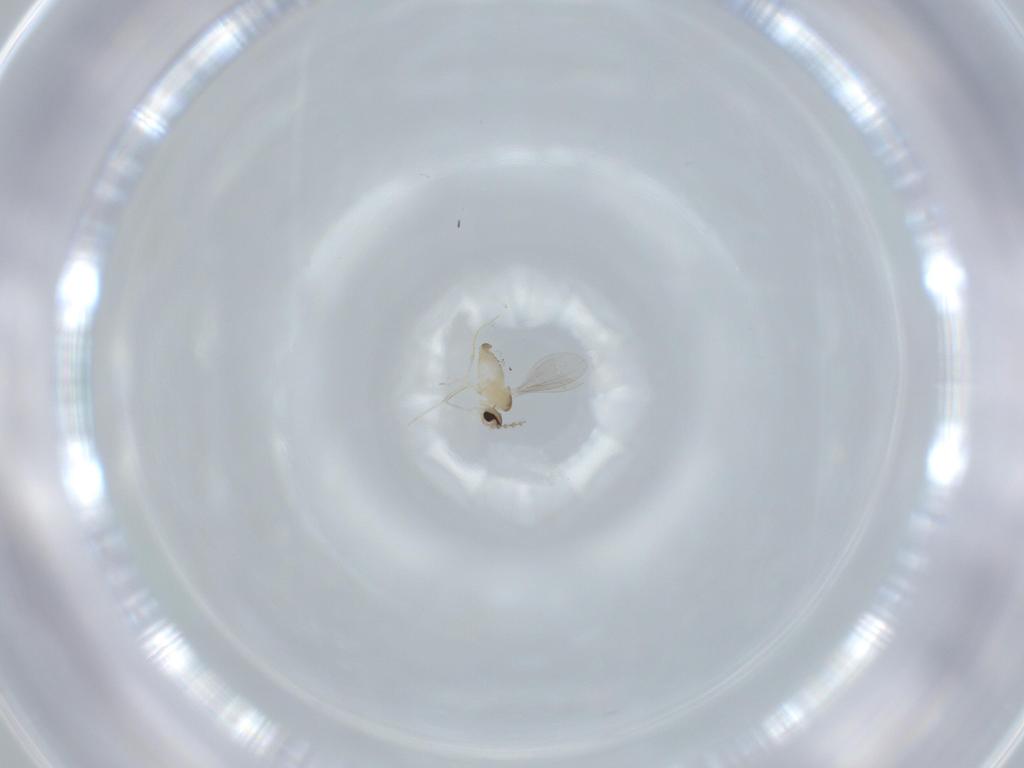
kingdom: Animalia
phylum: Arthropoda
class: Insecta
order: Diptera
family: Cecidomyiidae
